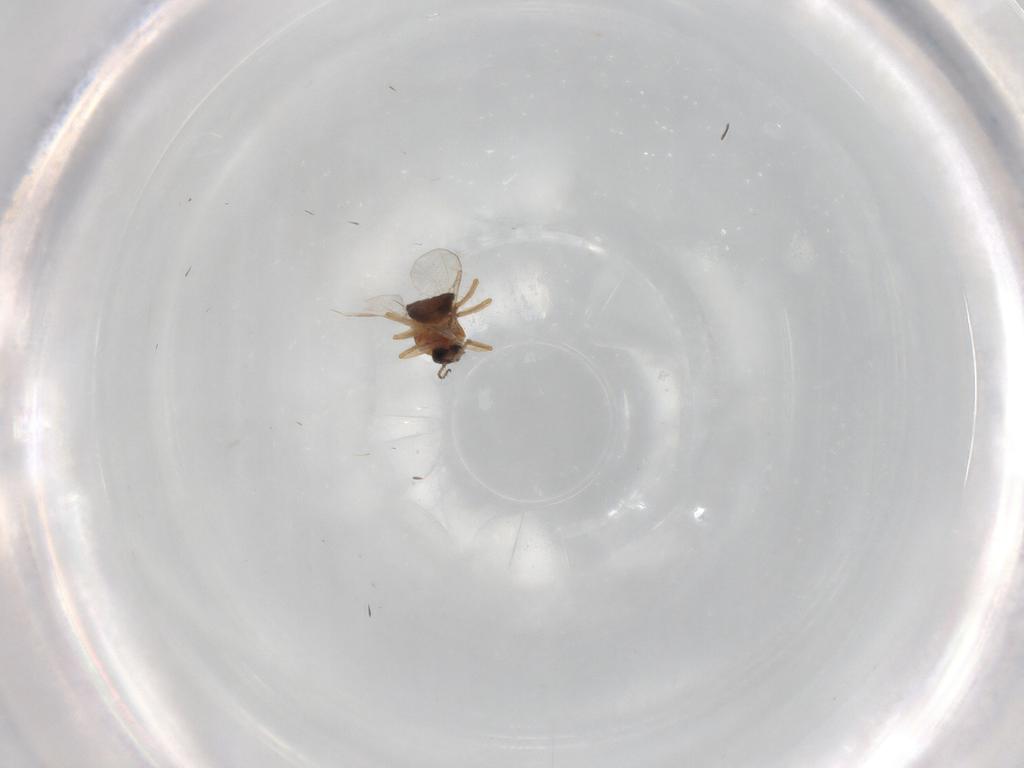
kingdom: Animalia
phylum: Arthropoda
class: Insecta
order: Diptera
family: Ceratopogonidae
